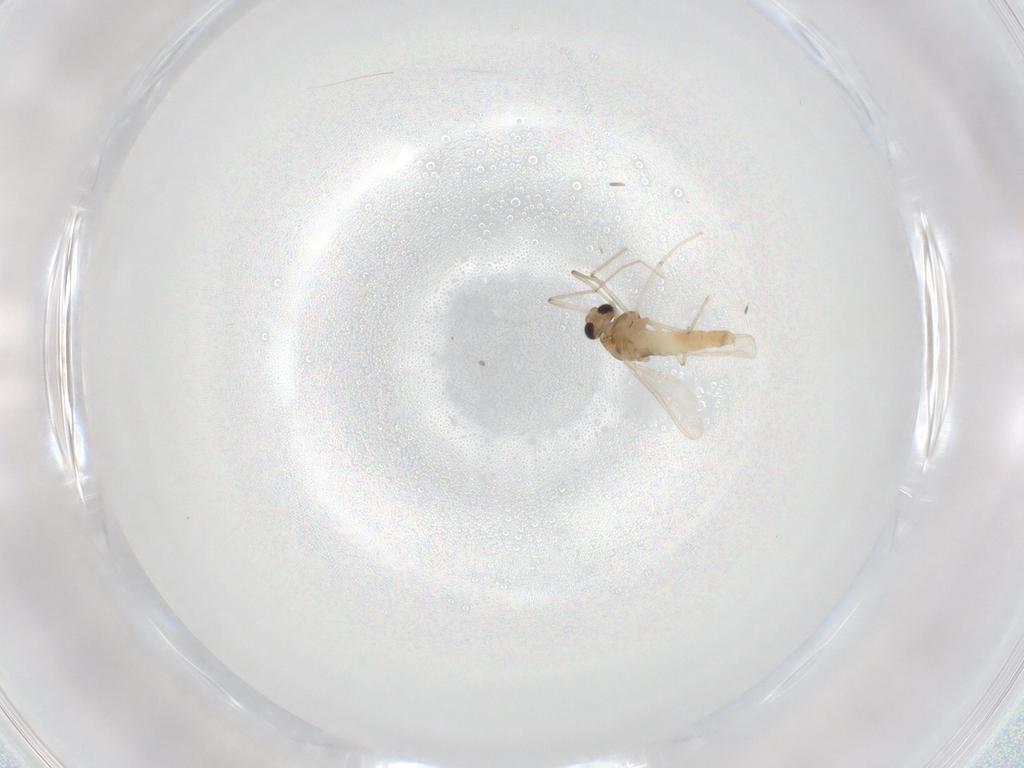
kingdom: Animalia
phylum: Arthropoda
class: Insecta
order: Diptera
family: Chironomidae
